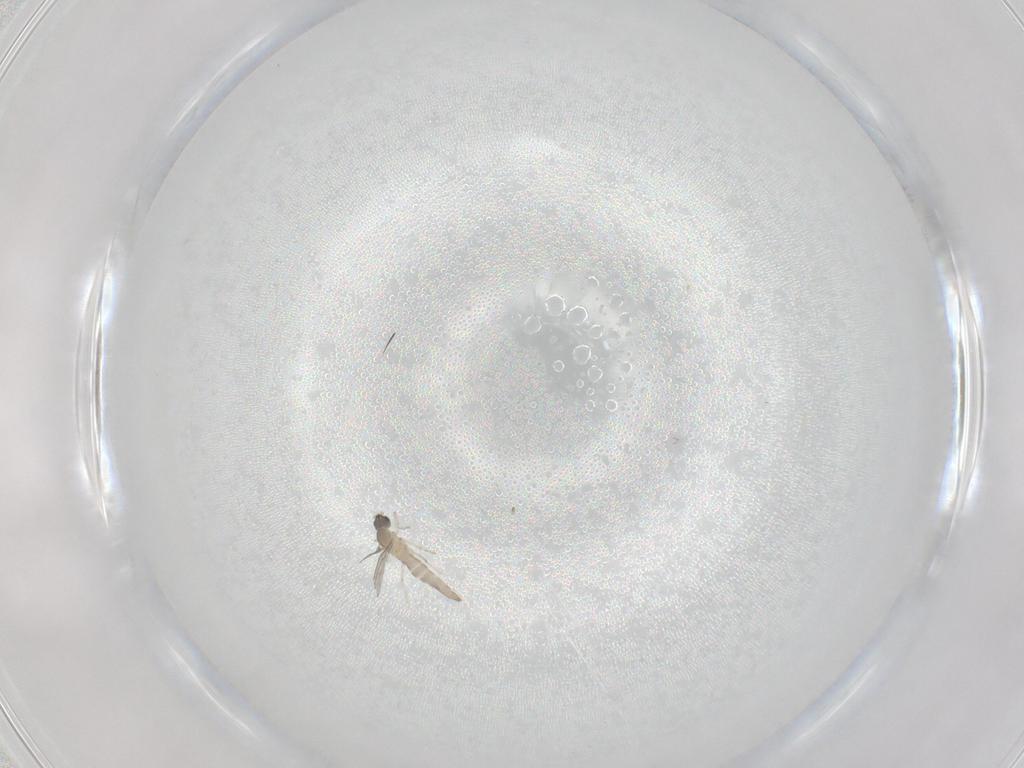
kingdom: Animalia
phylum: Arthropoda
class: Insecta
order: Diptera
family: Cecidomyiidae
